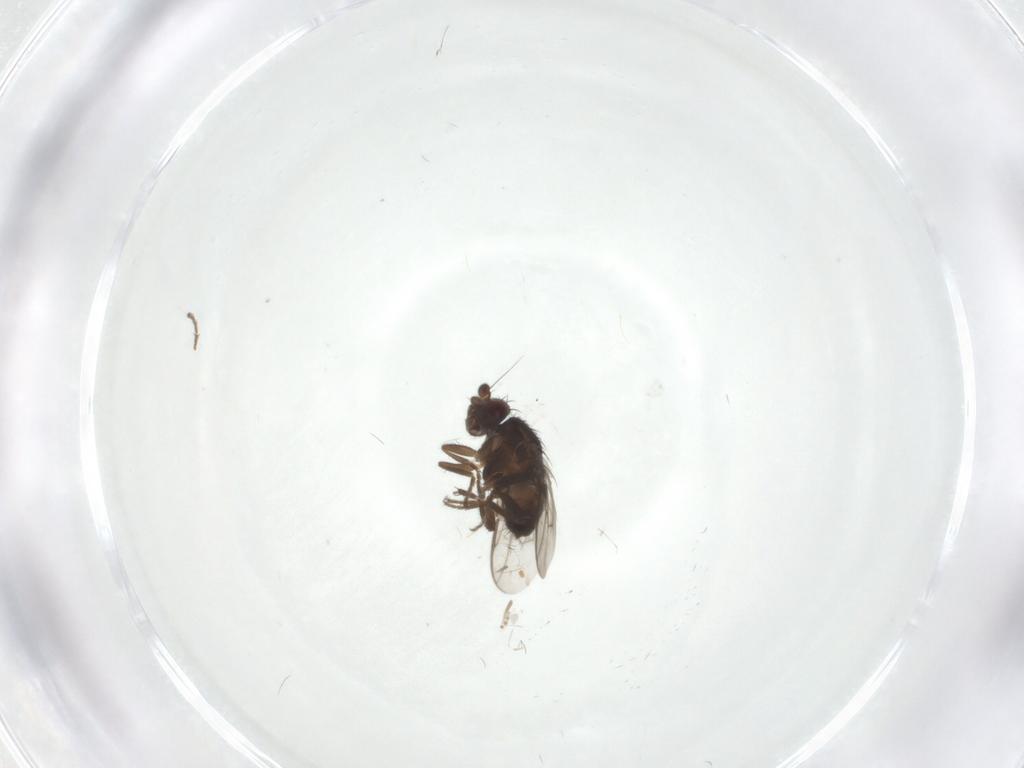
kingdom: Animalia
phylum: Arthropoda
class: Insecta
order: Diptera
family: Sphaeroceridae
